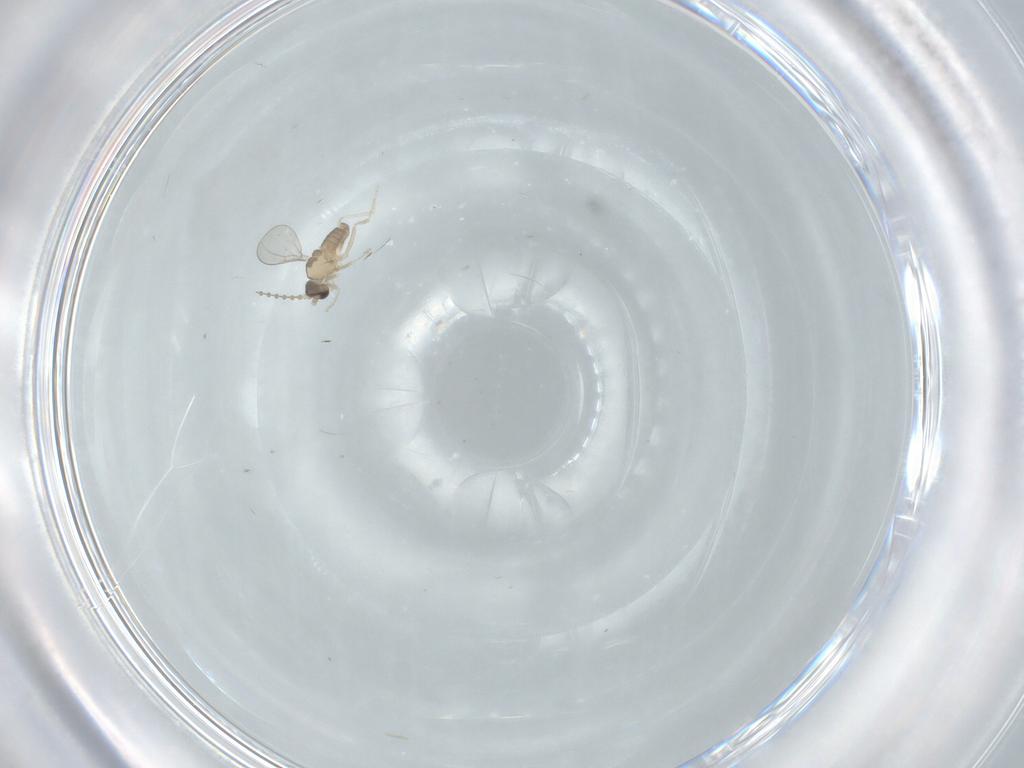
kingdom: Animalia
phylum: Arthropoda
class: Insecta
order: Diptera
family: Cecidomyiidae
